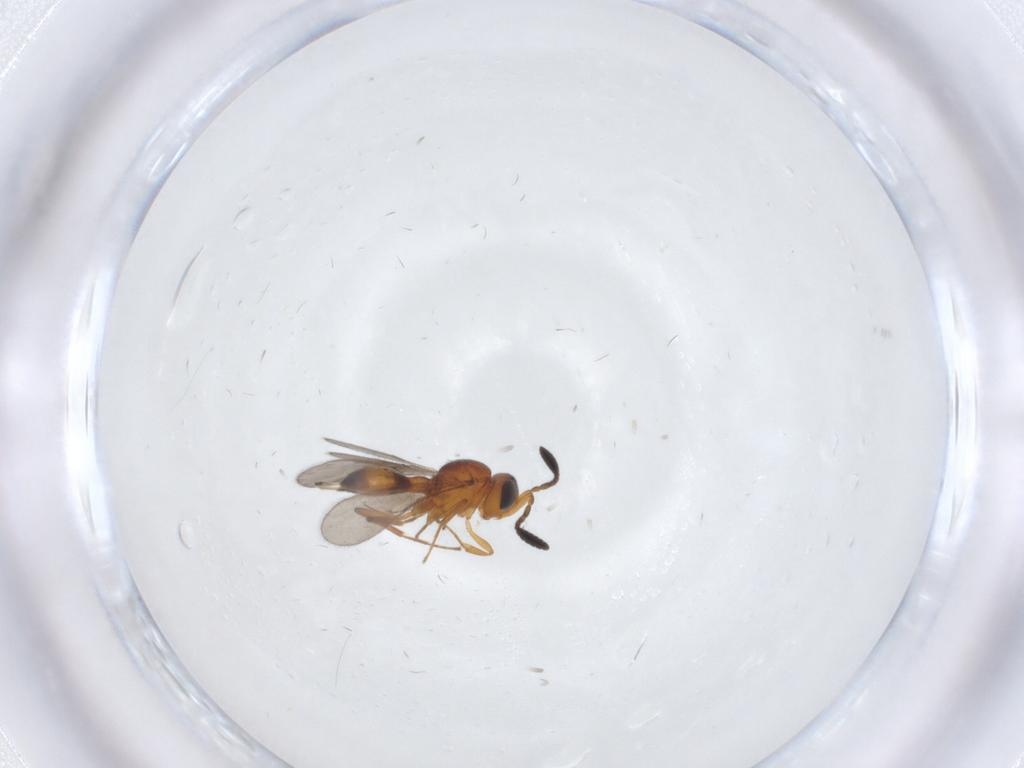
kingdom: Animalia
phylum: Arthropoda
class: Insecta
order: Hymenoptera
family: Scelionidae
